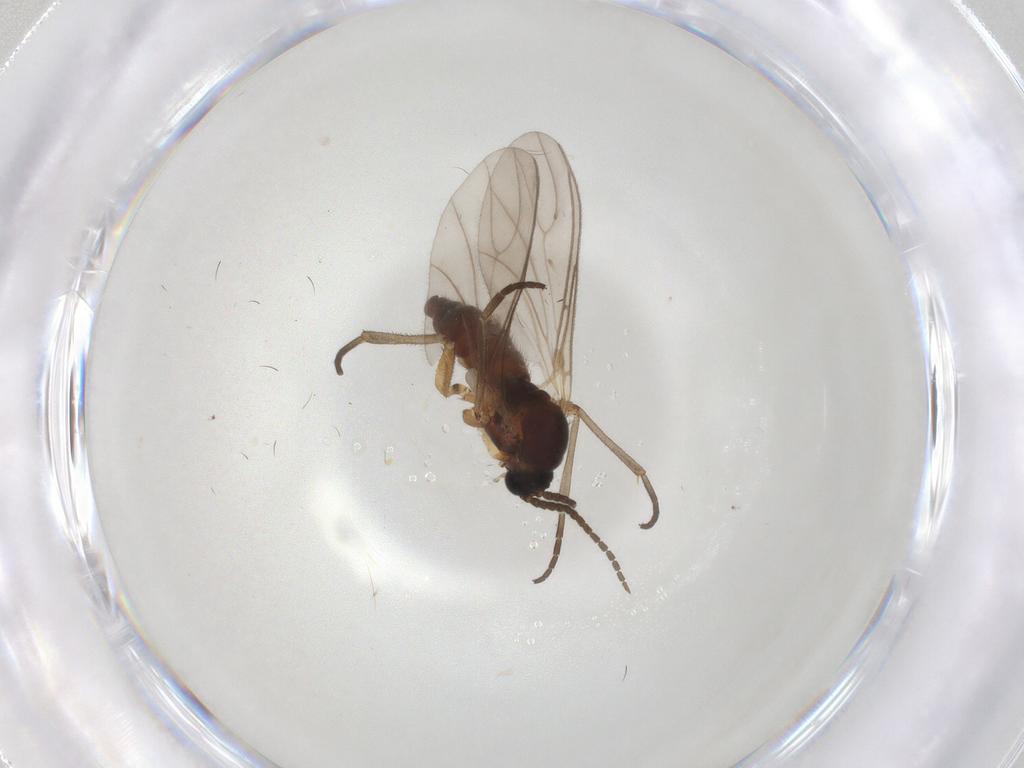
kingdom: Animalia
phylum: Arthropoda
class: Insecta
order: Diptera
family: Sciaridae
